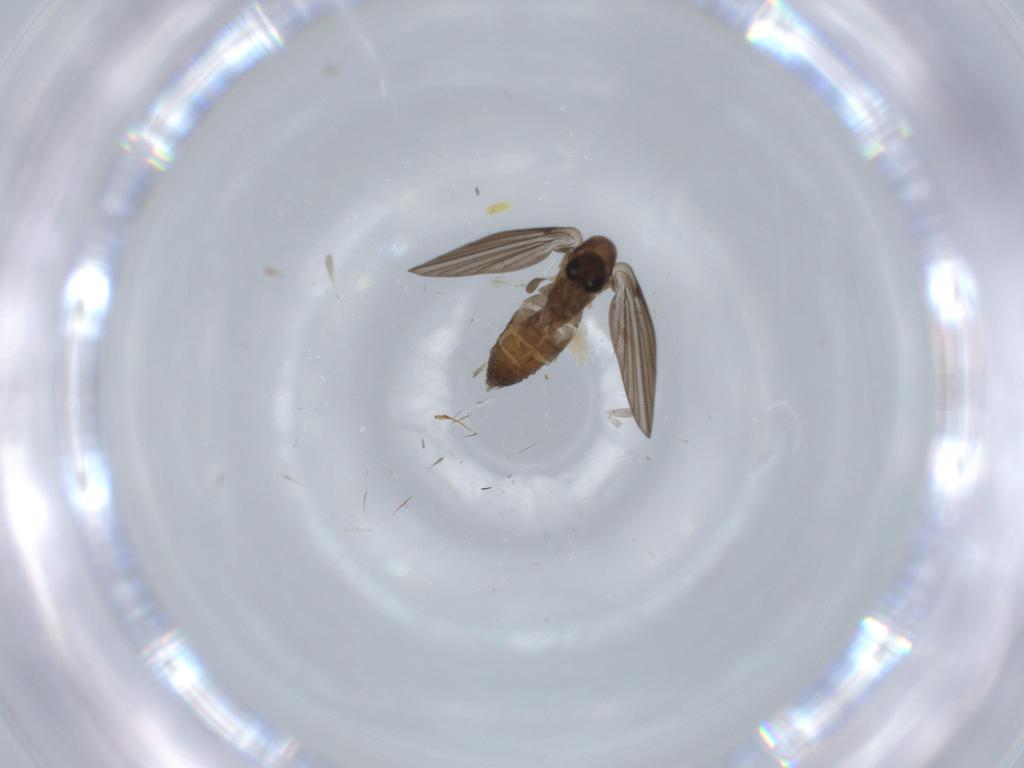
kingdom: Animalia
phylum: Arthropoda
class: Insecta
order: Diptera
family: Psychodidae
